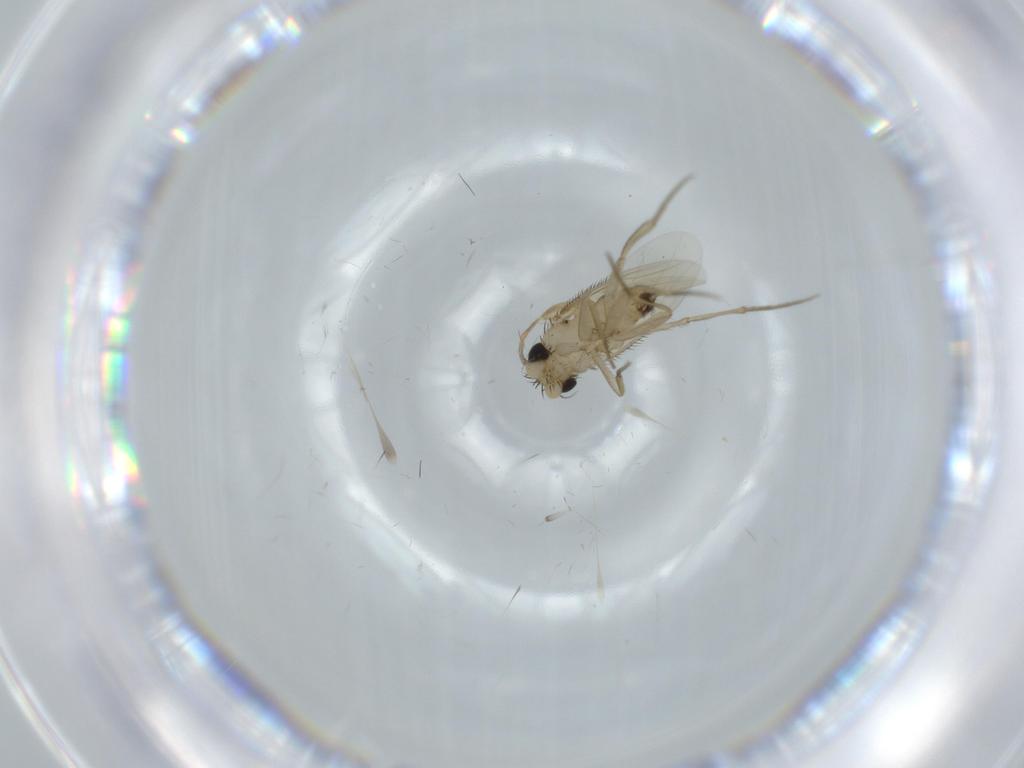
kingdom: Animalia
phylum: Arthropoda
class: Insecta
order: Diptera
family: Phoridae
